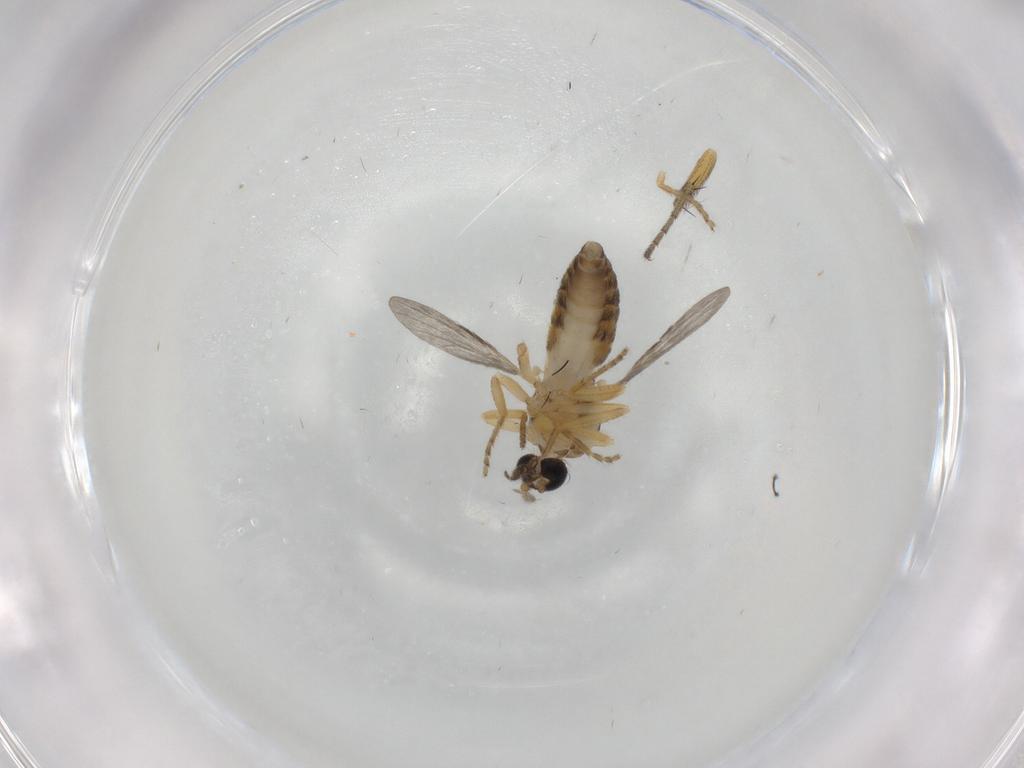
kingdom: Animalia
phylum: Arthropoda
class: Insecta
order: Diptera
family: Ceratopogonidae
